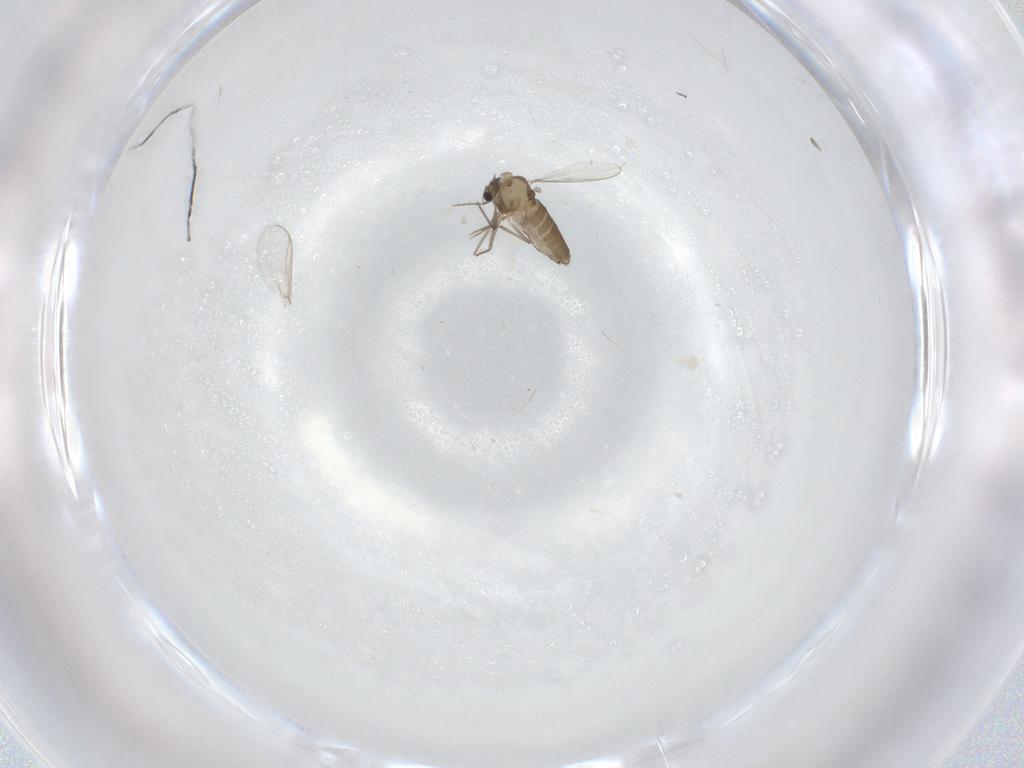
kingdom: Animalia
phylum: Arthropoda
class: Insecta
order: Diptera
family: Chironomidae
